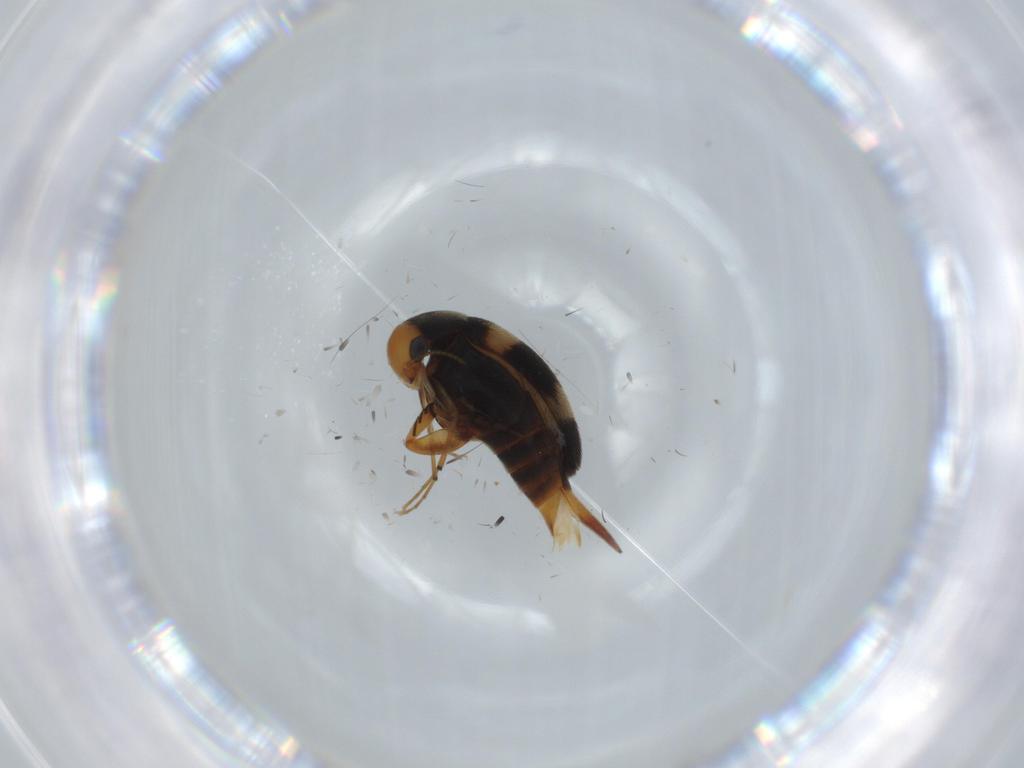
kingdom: Animalia
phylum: Arthropoda
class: Insecta
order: Coleoptera
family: Mordellidae
